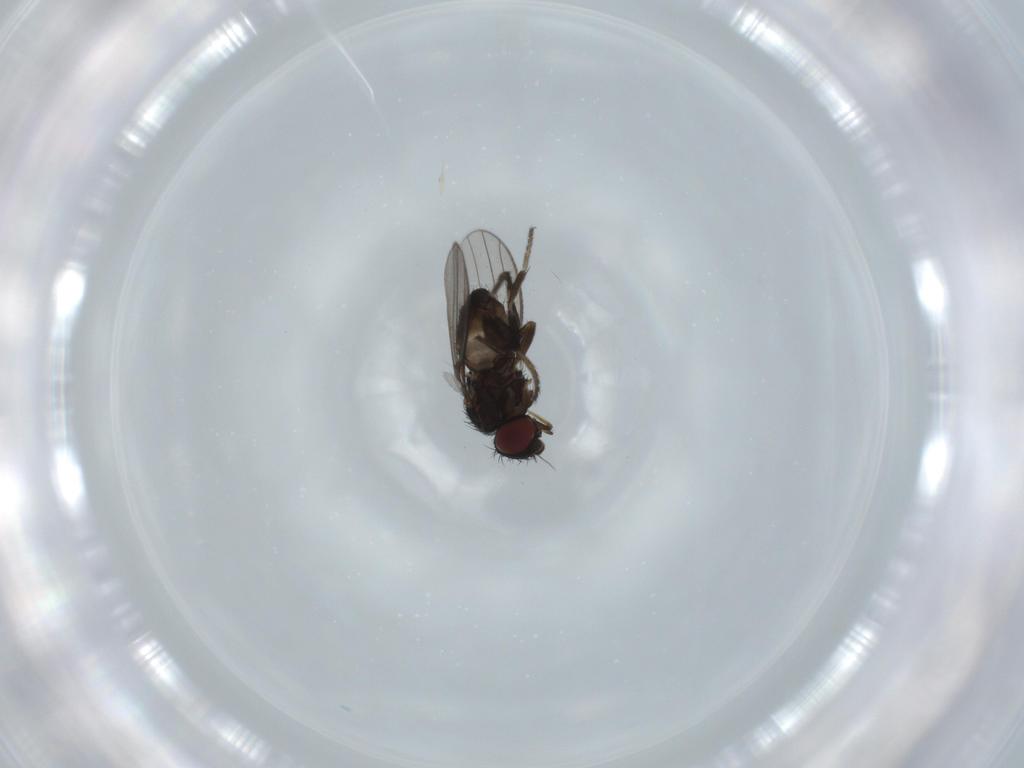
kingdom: Animalia
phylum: Arthropoda
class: Insecta
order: Diptera
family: Milichiidae
